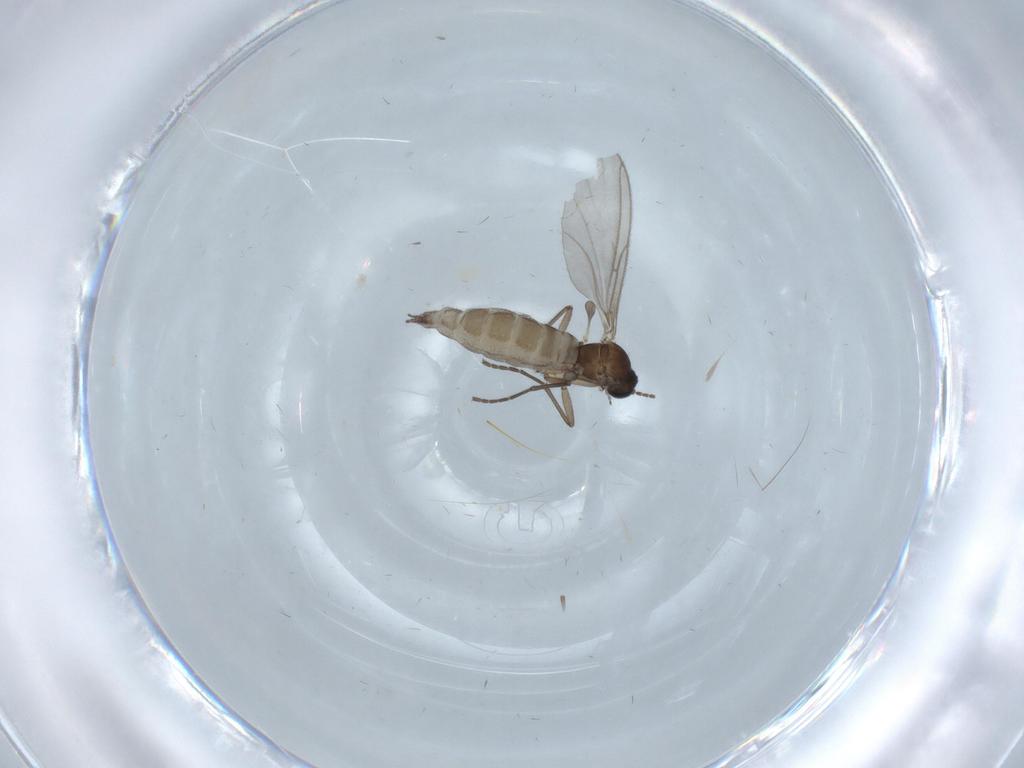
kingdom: Animalia
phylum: Arthropoda
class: Insecta
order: Diptera
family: Sciaridae
